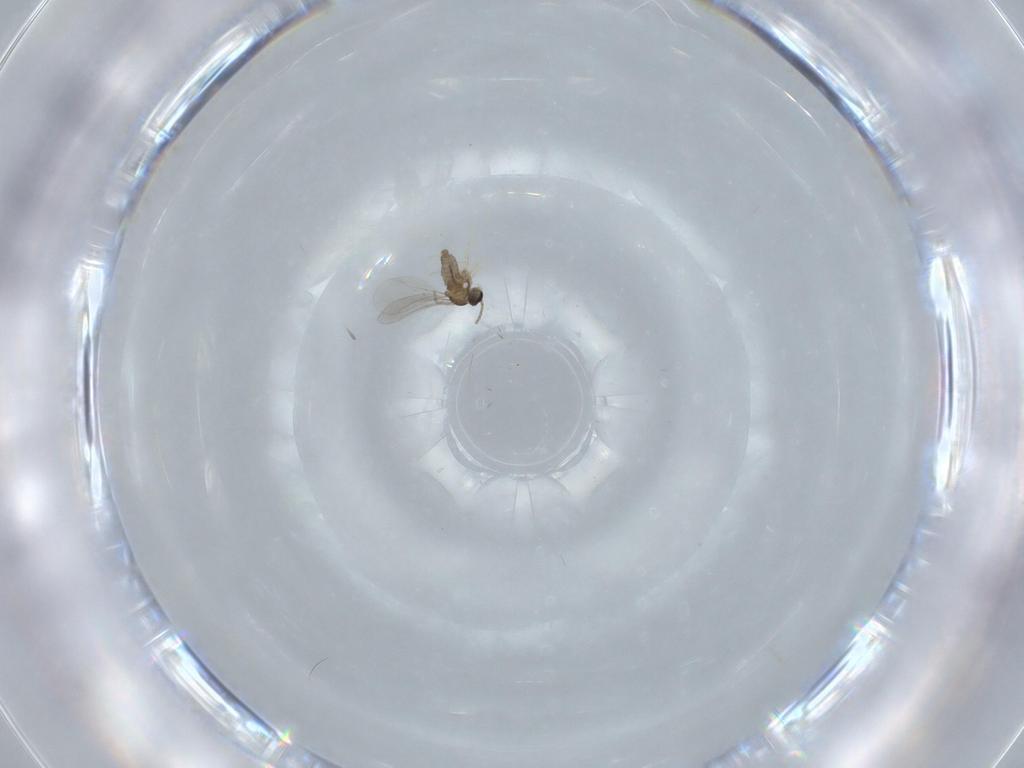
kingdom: Animalia
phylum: Arthropoda
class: Insecta
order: Diptera
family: Cecidomyiidae
